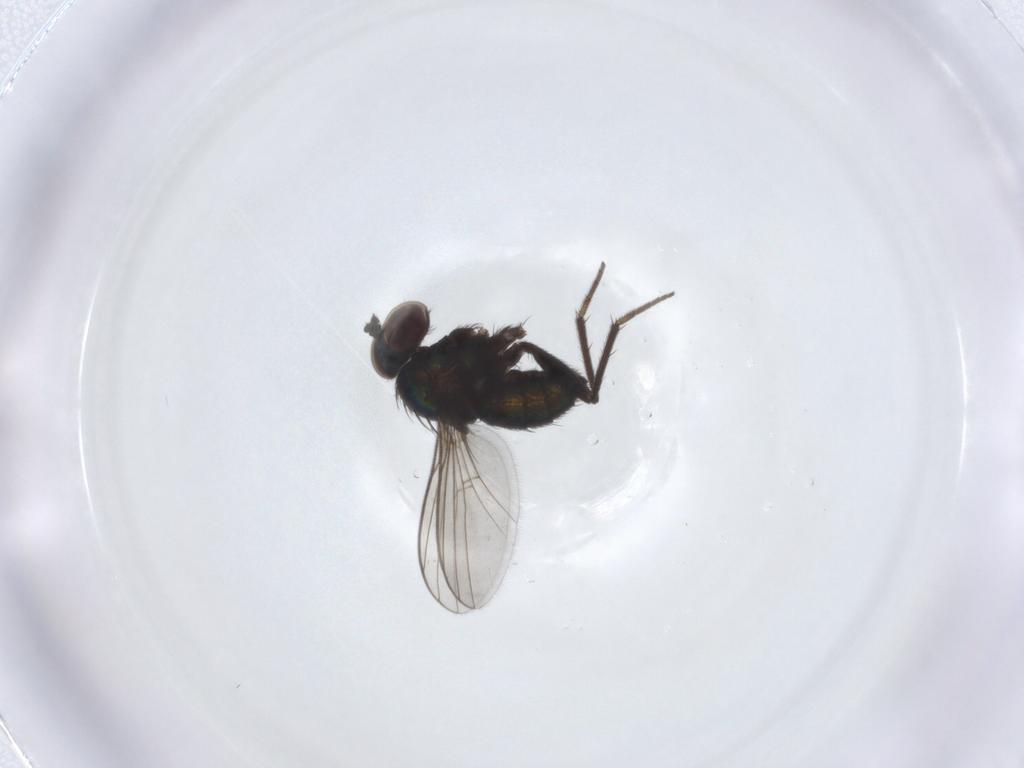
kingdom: Animalia
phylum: Arthropoda
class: Insecta
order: Diptera
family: Dolichopodidae
